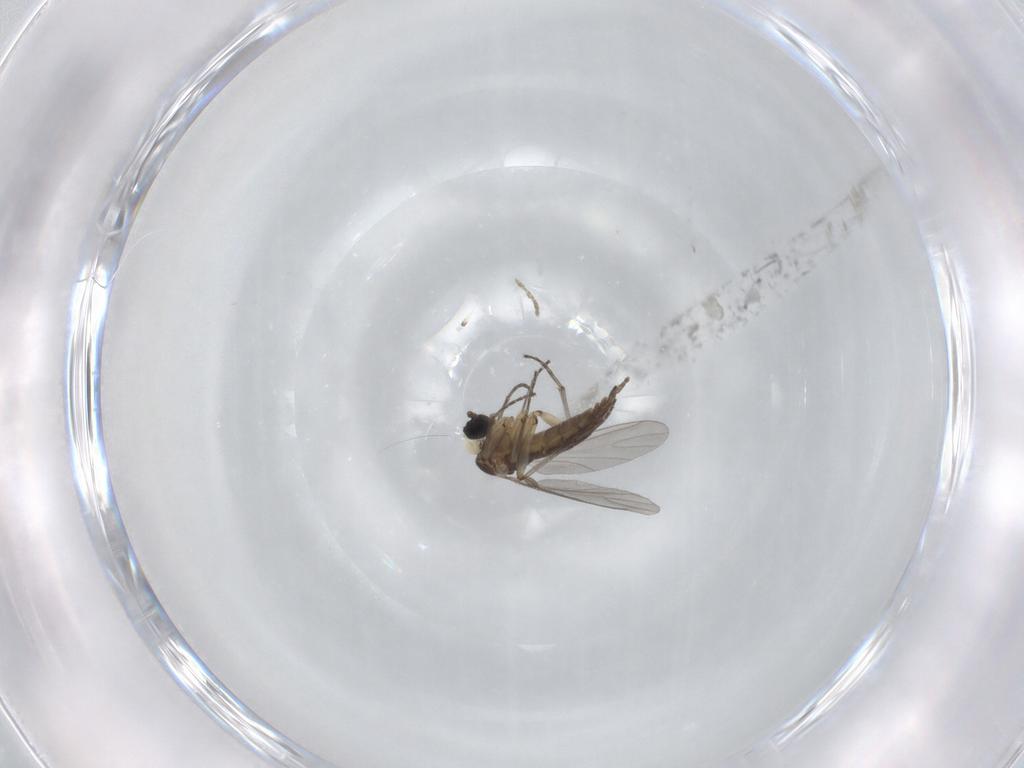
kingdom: Animalia
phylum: Arthropoda
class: Insecta
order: Diptera
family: Sciaridae
